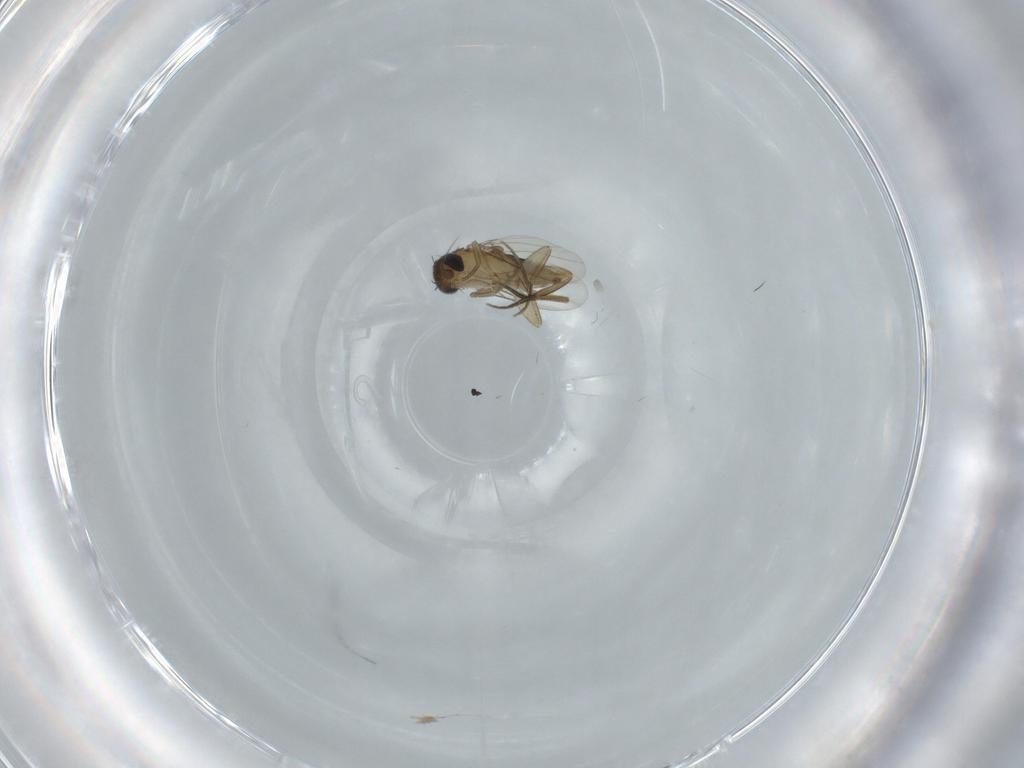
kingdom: Animalia
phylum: Arthropoda
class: Insecta
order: Diptera
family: Phoridae
